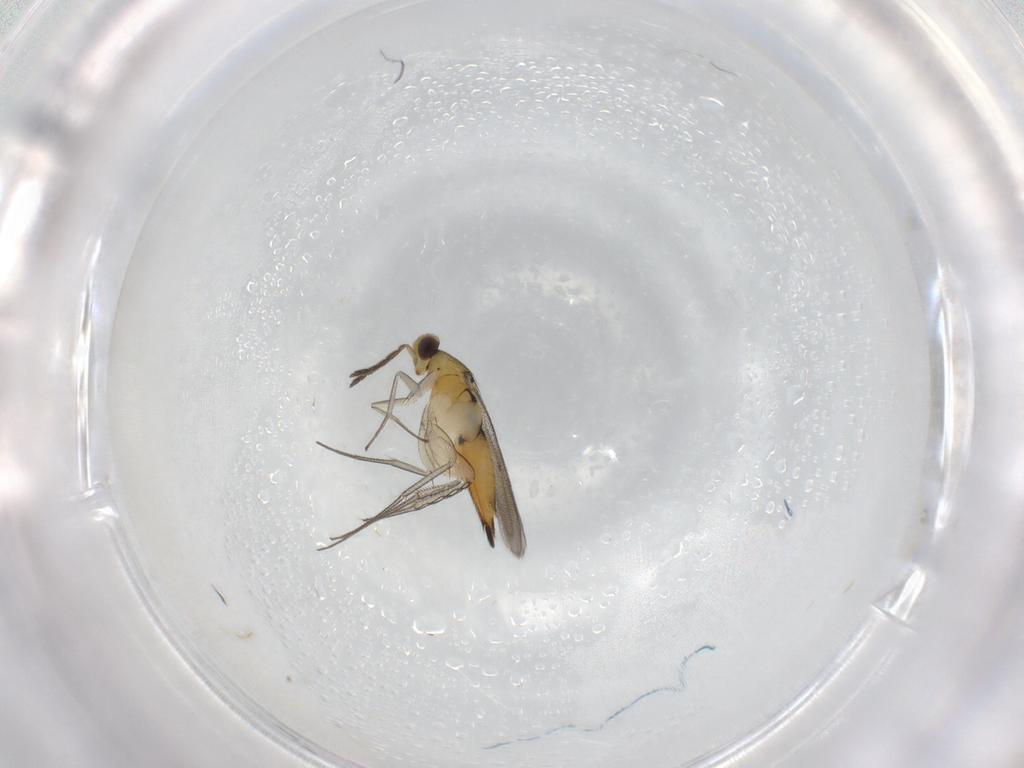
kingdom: Animalia
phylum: Arthropoda
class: Insecta
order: Hymenoptera
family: Eulophidae
